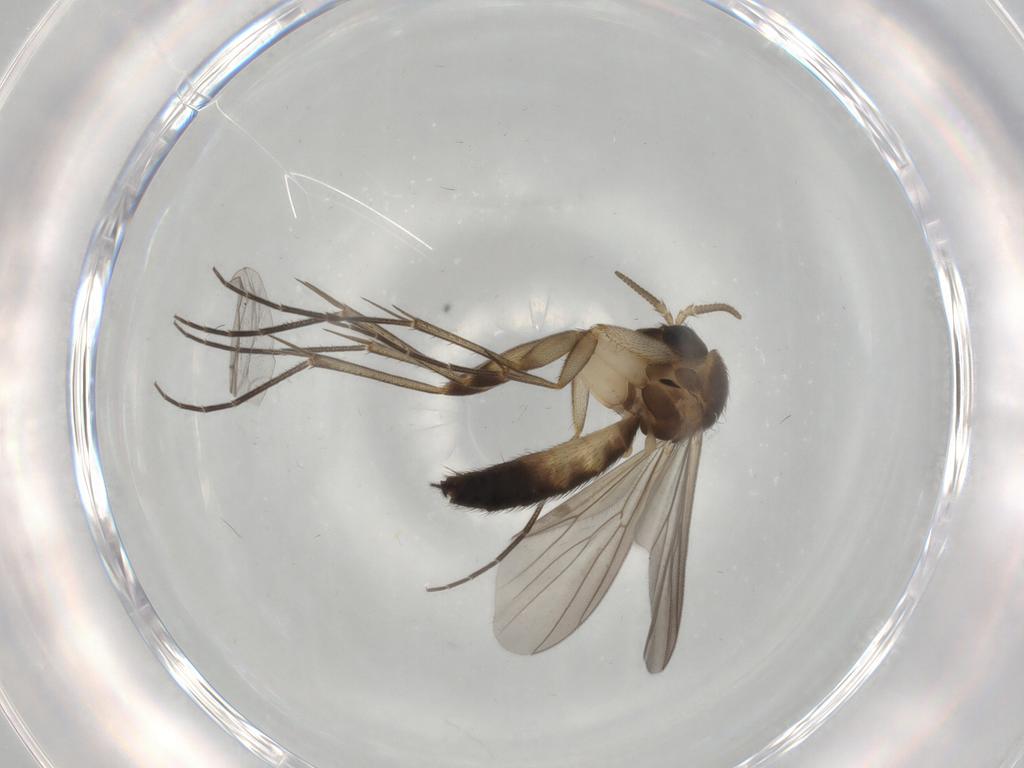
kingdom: Animalia
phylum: Arthropoda
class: Insecta
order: Diptera
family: Mycetophilidae
